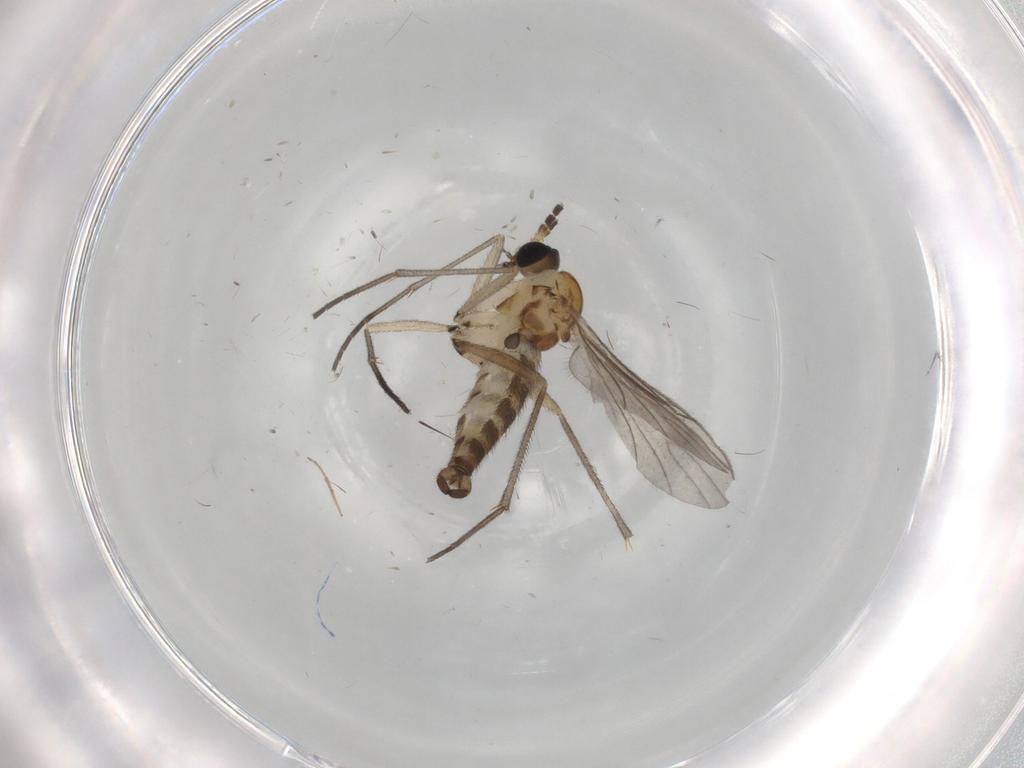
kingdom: Animalia
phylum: Arthropoda
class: Insecta
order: Diptera
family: Sciaridae
